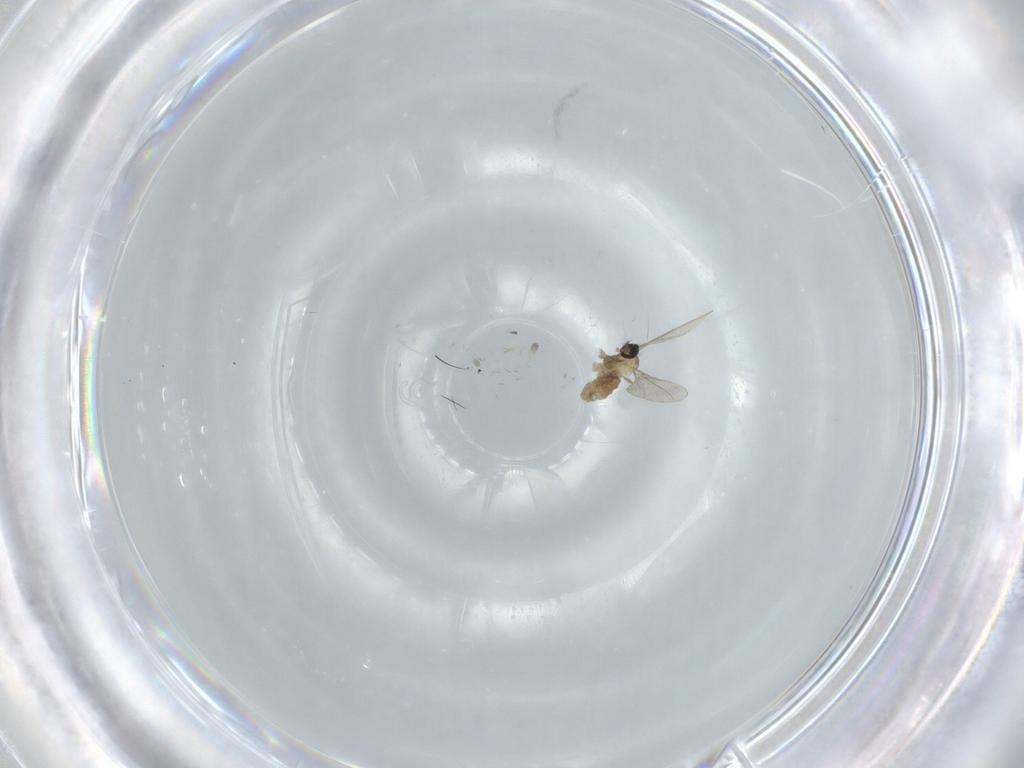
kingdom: Animalia
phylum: Arthropoda
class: Insecta
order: Diptera
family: Cecidomyiidae
